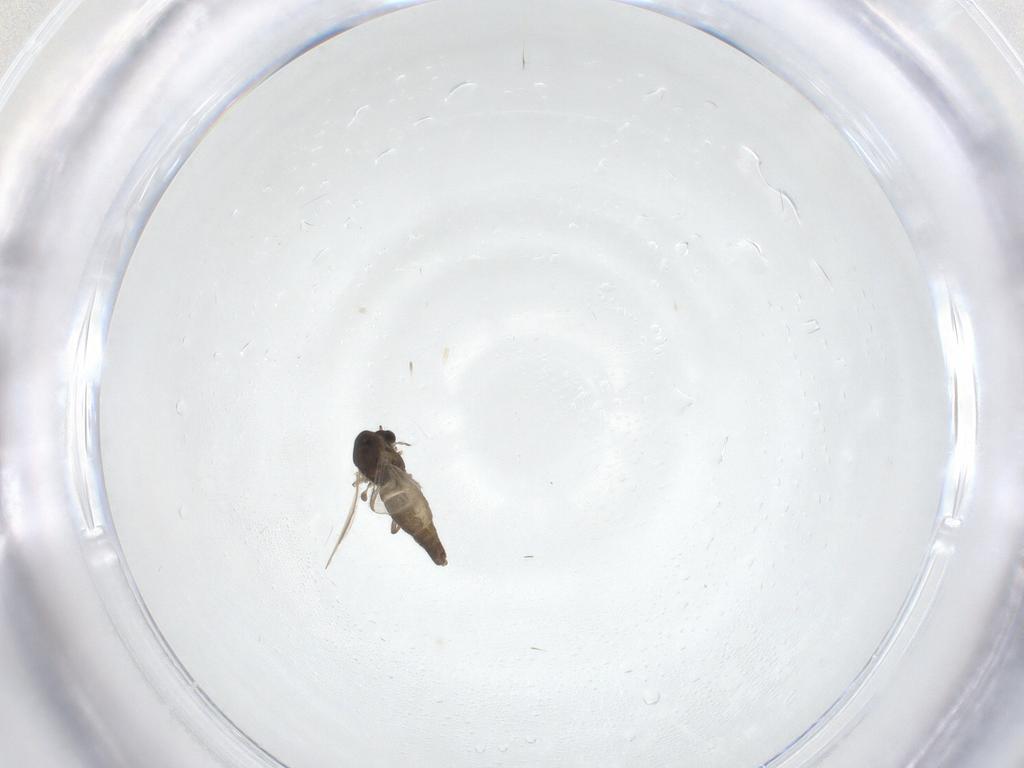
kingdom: Animalia
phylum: Arthropoda
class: Insecta
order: Diptera
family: Chironomidae
